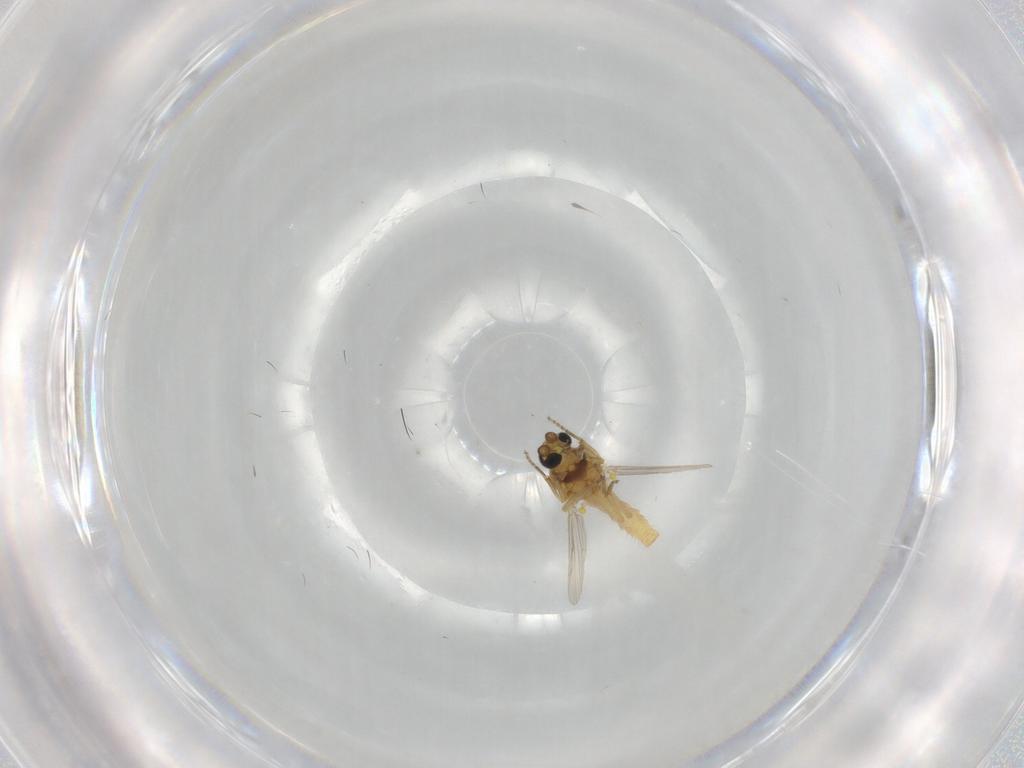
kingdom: Animalia
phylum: Arthropoda
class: Insecta
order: Diptera
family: Ceratopogonidae
